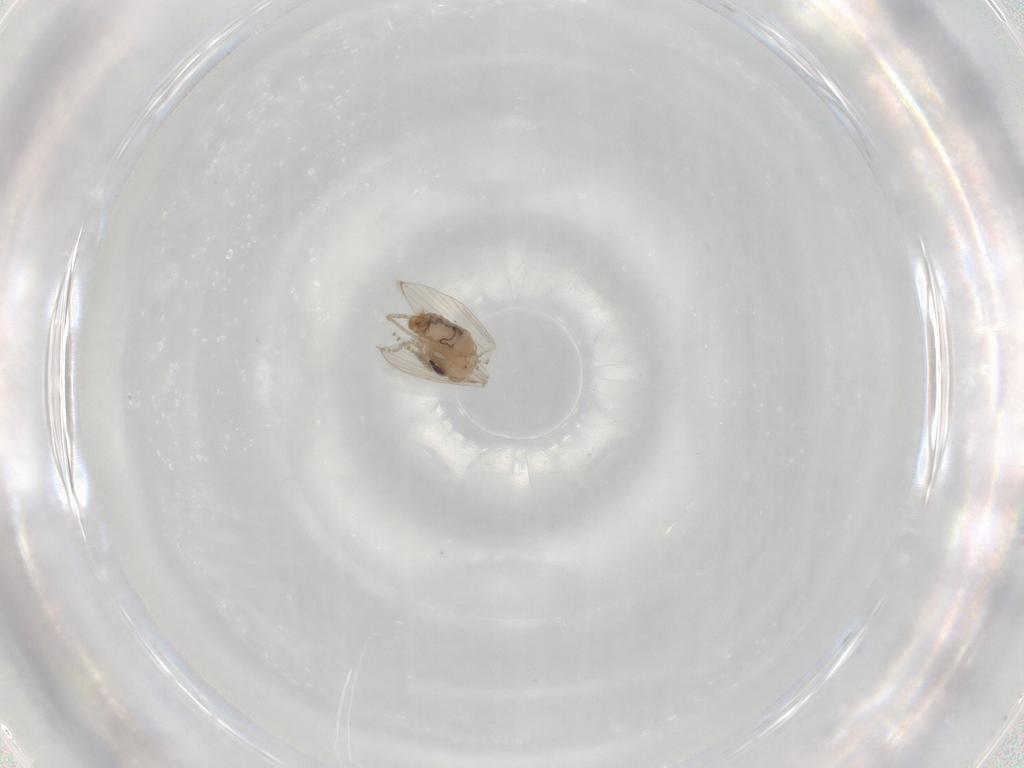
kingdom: Animalia
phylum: Arthropoda
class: Insecta
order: Diptera
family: Psychodidae
